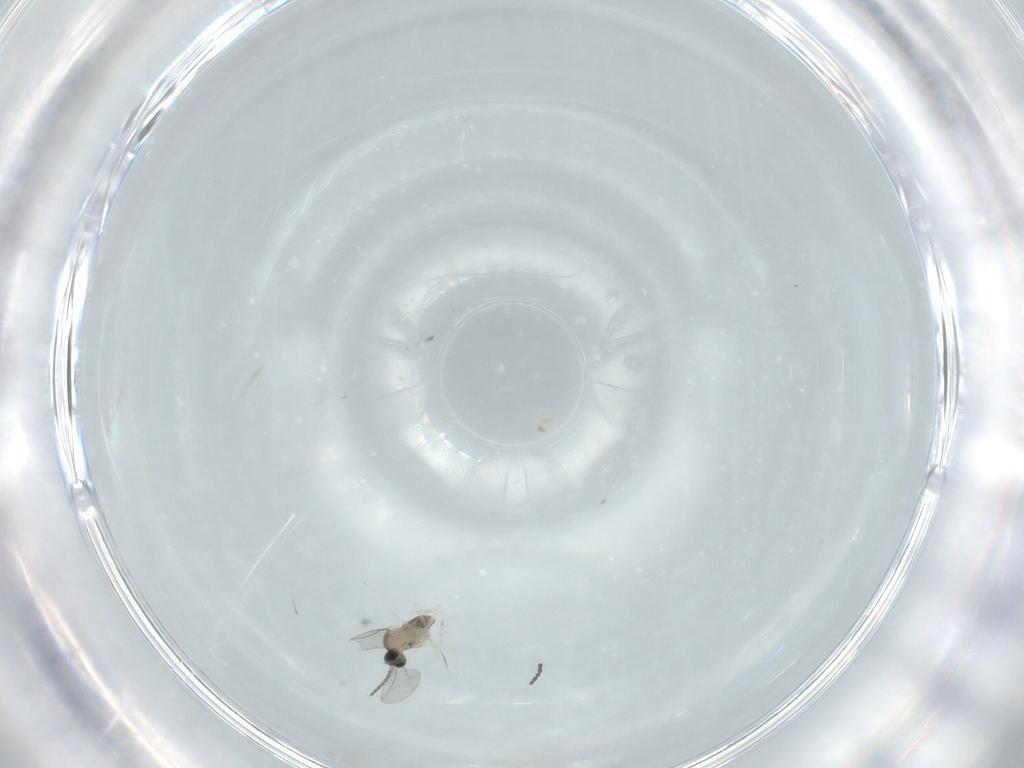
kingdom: Animalia
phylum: Arthropoda
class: Insecta
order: Diptera
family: Cecidomyiidae
